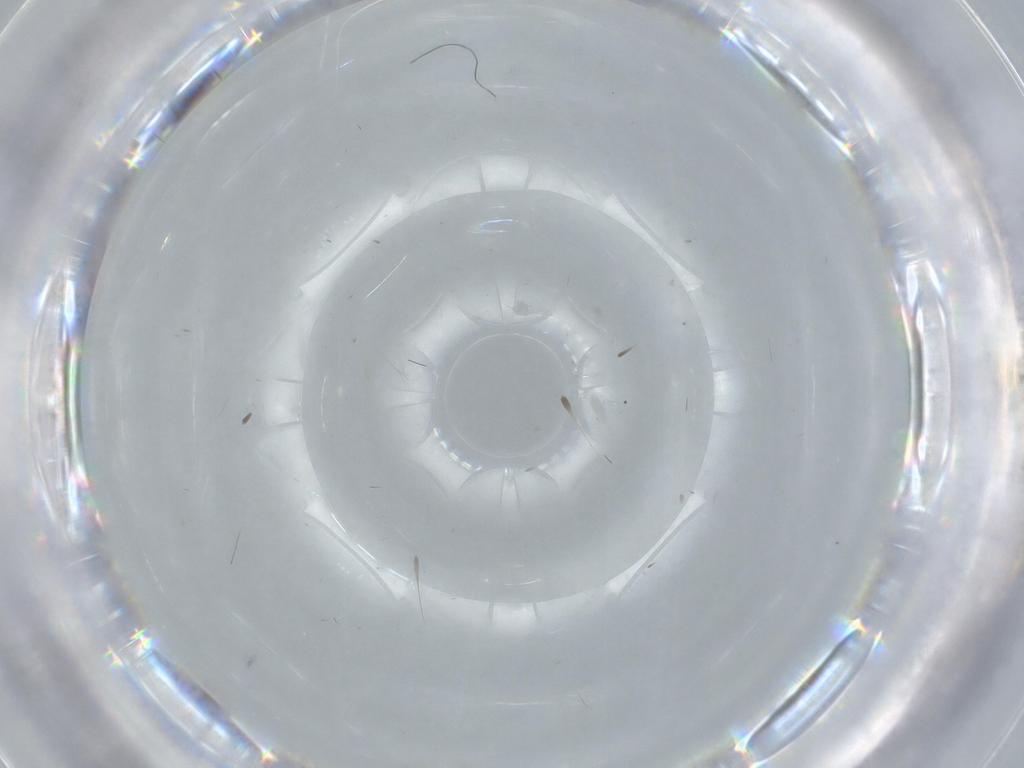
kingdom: Animalia
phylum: Arthropoda
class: Insecta
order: Diptera
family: Chironomidae
